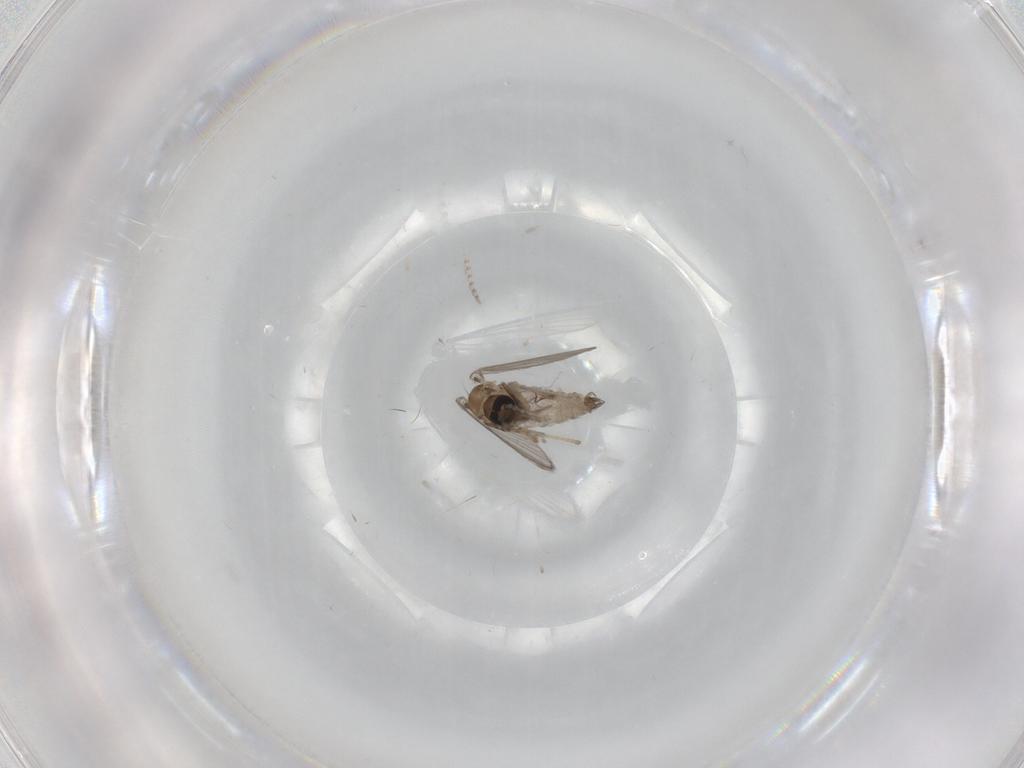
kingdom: Animalia
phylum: Arthropoda
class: Insecta
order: Diptera
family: Psychodidae
